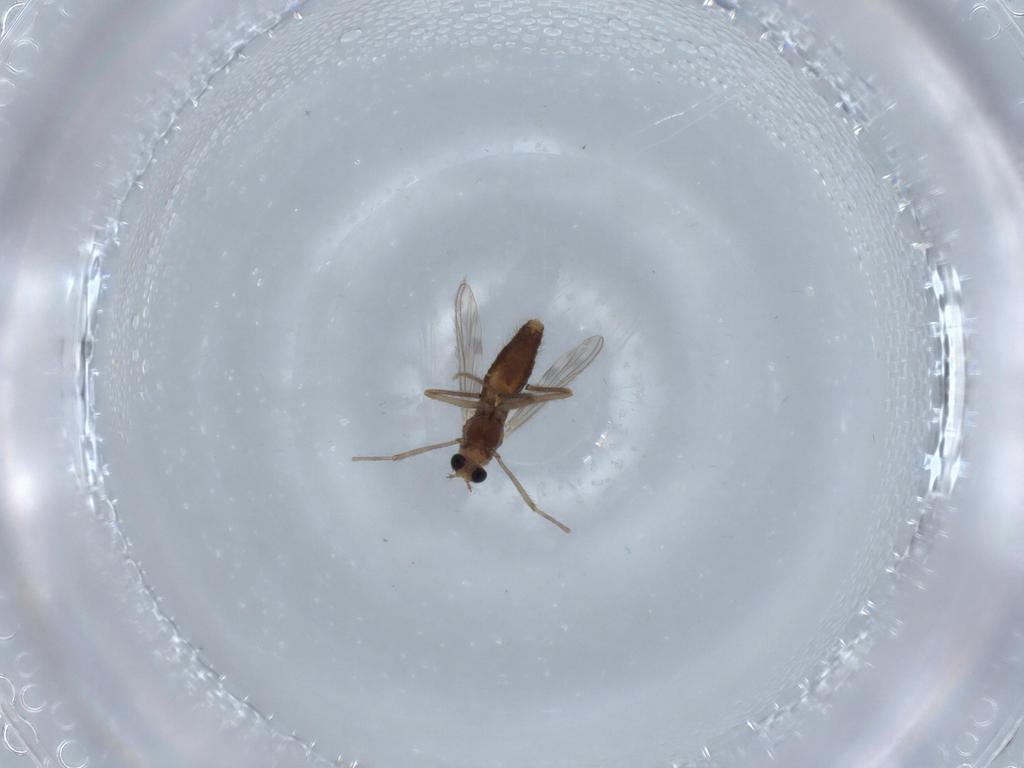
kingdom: Animalia
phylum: Arthropoda
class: Insecta
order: Diptera
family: Chironomidae
